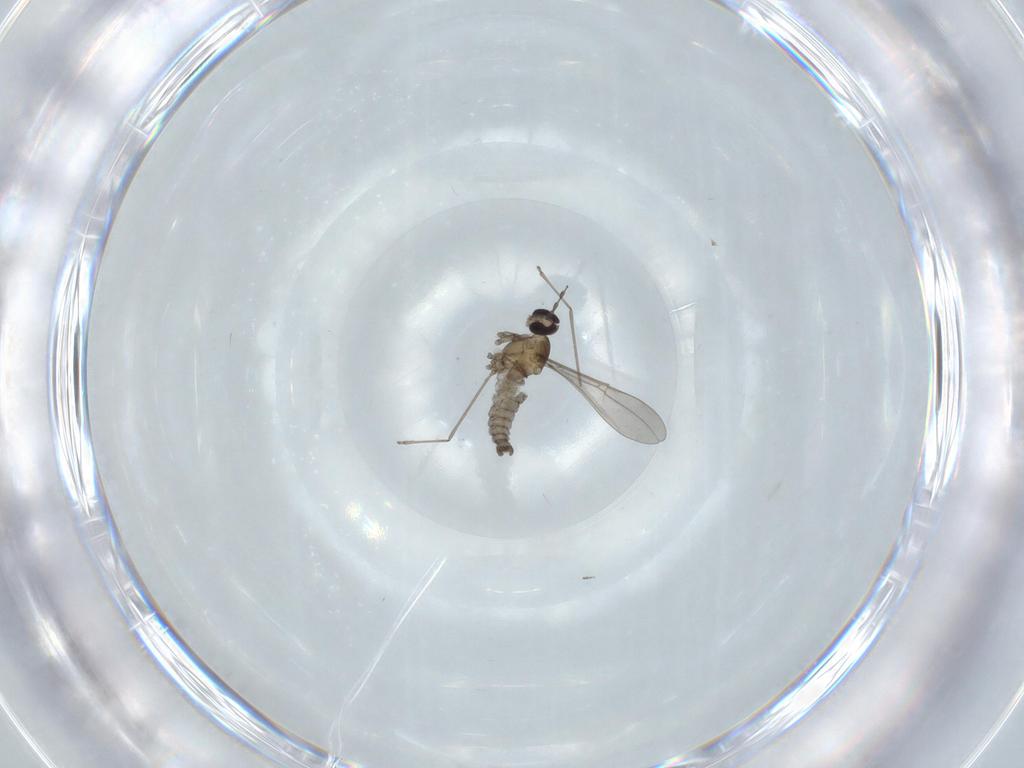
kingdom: Animalia
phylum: Arthropoda
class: Insecta
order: Diptera
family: Cecidomyiidae
